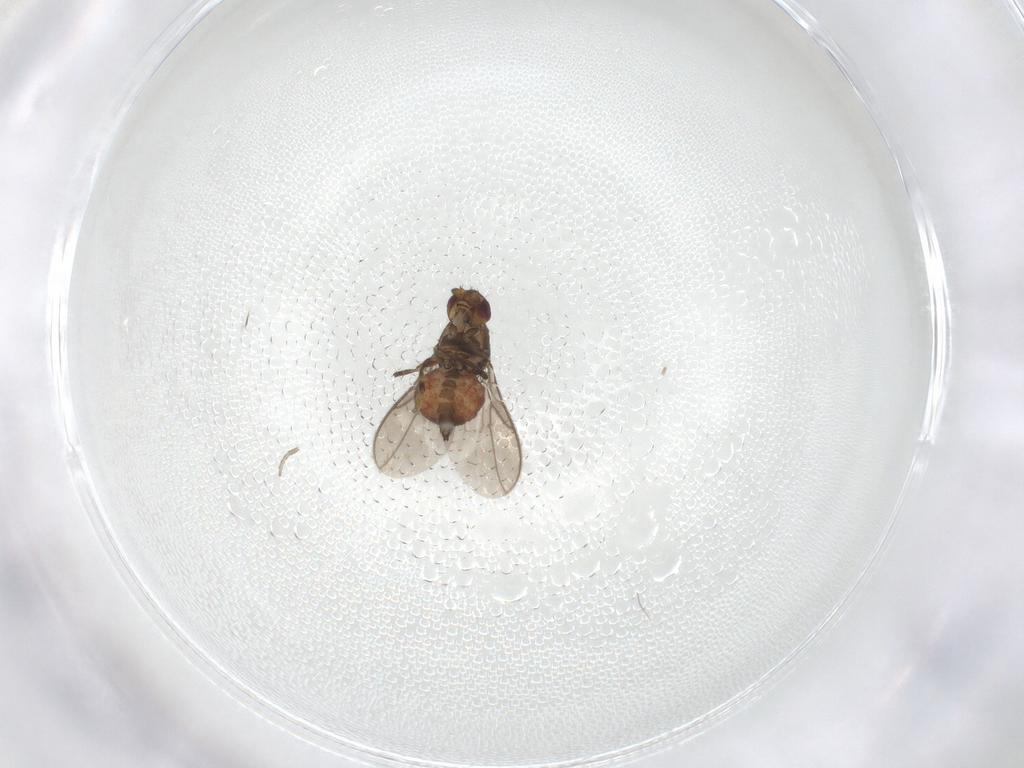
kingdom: Animalia
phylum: Arthropoda
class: Insecta
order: Diptera
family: Sphaeroceridae
